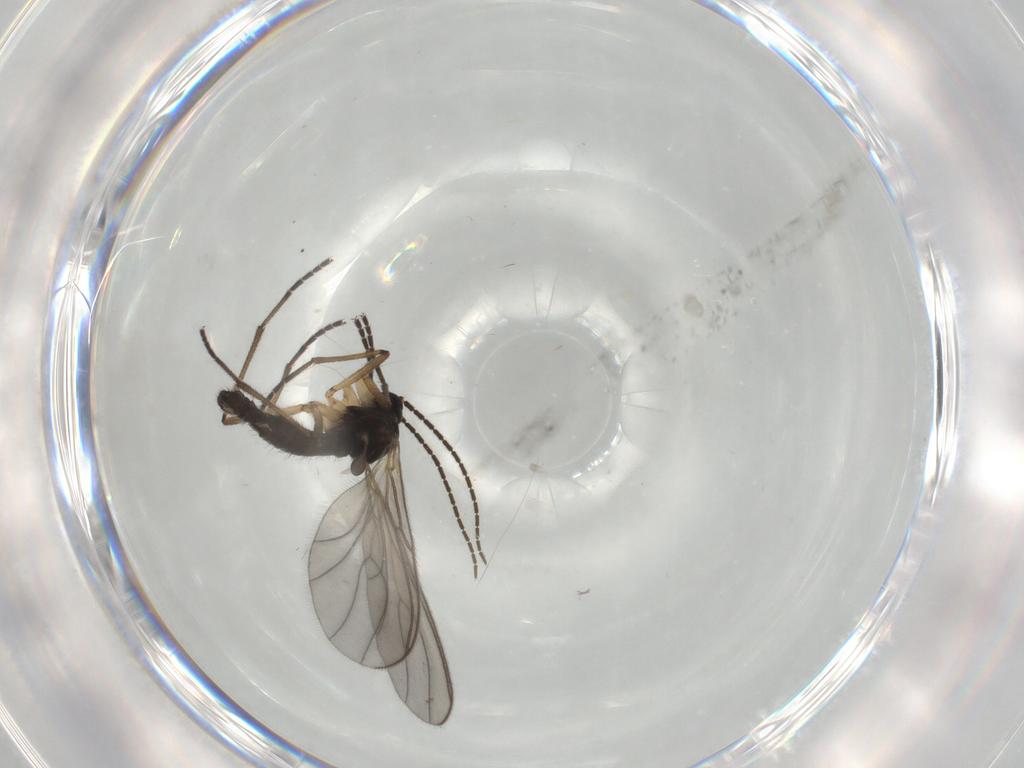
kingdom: Animalia
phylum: Arthropoda
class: Insecta
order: Diptera
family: Sciaridae
